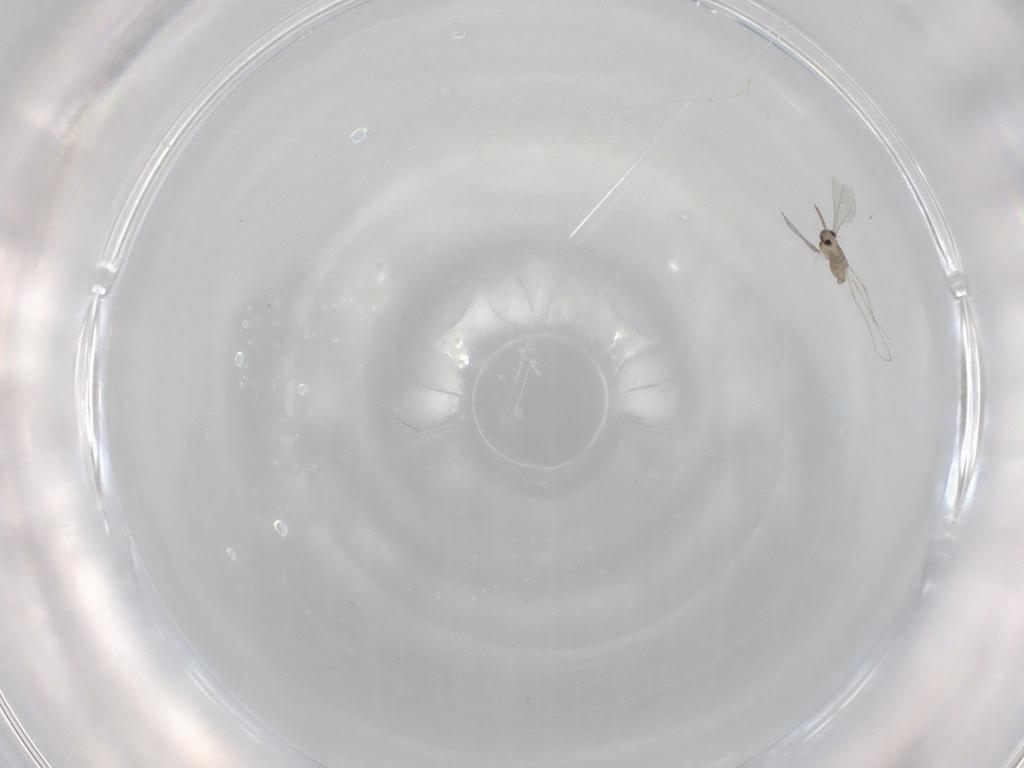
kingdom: Animalia
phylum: Arthropoda
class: Insecta
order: Diptera
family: Cecidomyiidae
